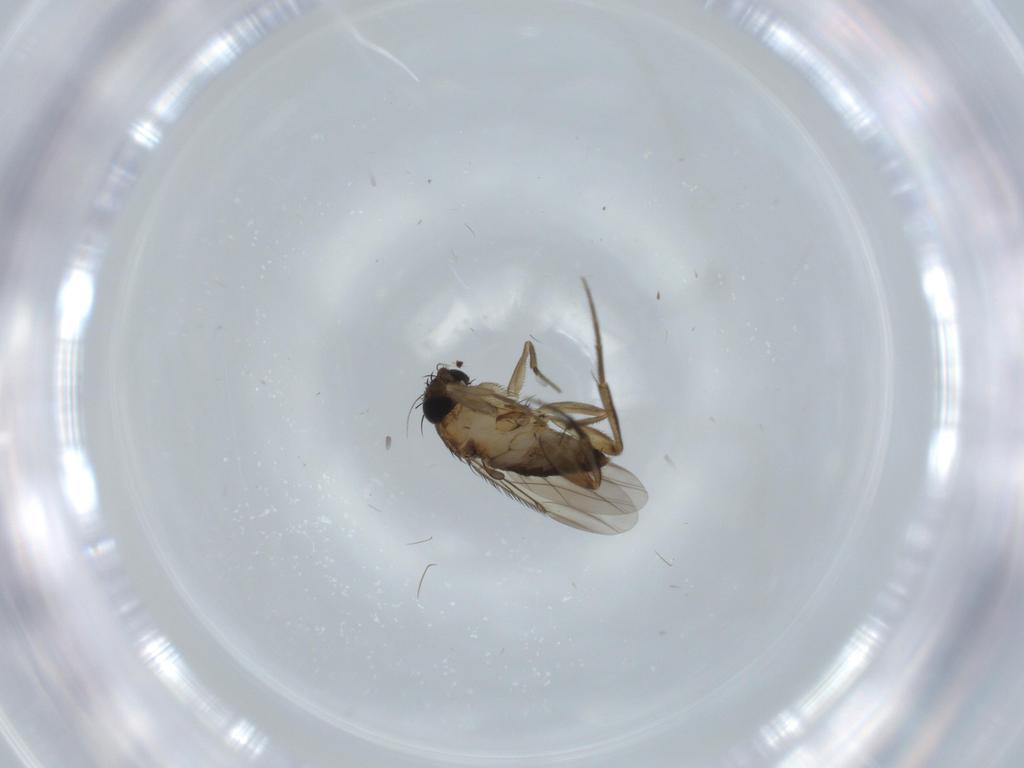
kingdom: Animalia
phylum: Arthropoda
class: Insecta
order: Diptera
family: Phoridae
